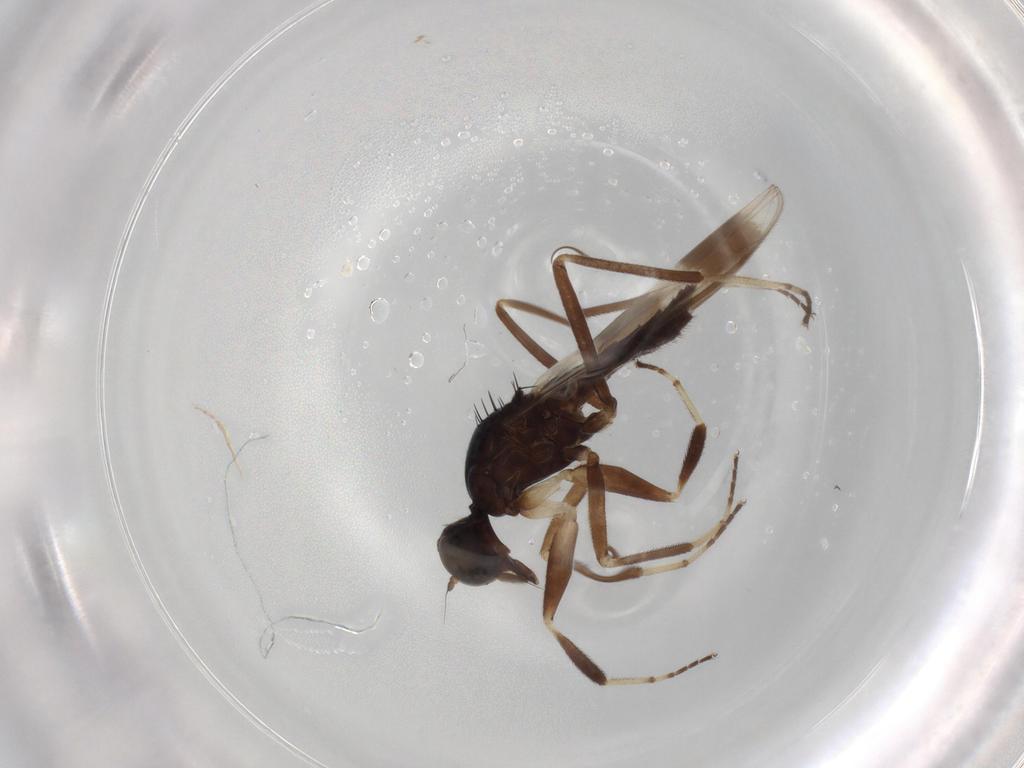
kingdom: Animalia
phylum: Arthropoda
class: Insecta
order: Diptera
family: Hybotidae
